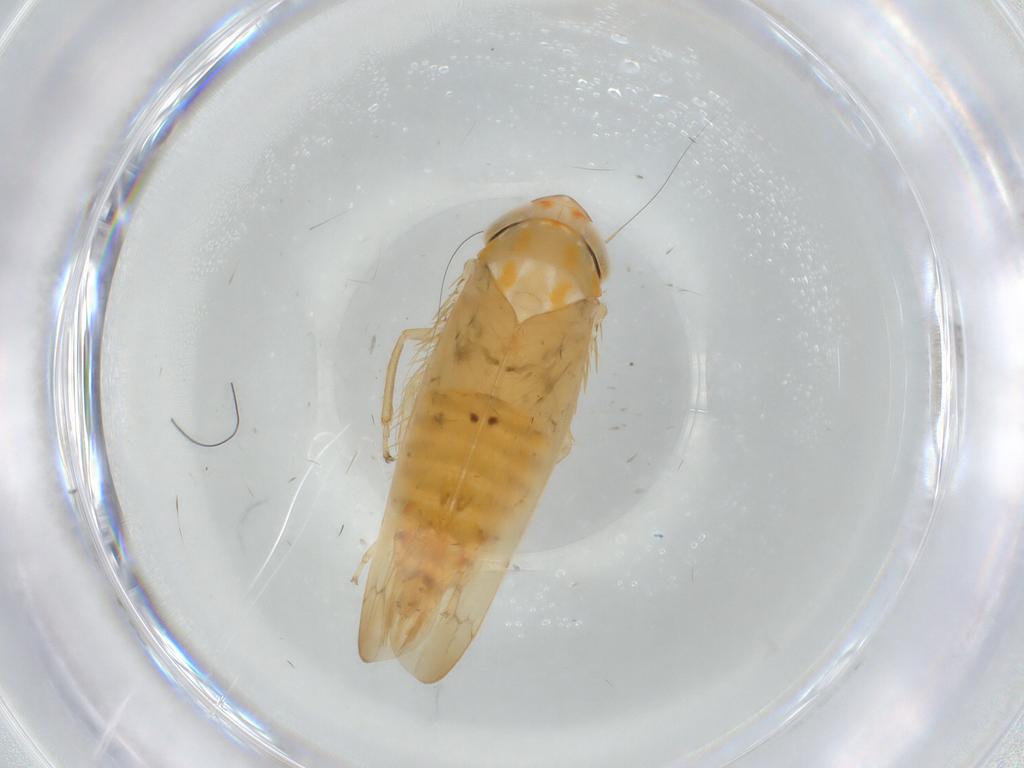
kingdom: Animalia
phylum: Arthropoda
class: Insecta
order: Hemiptera
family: Cicadellidae
